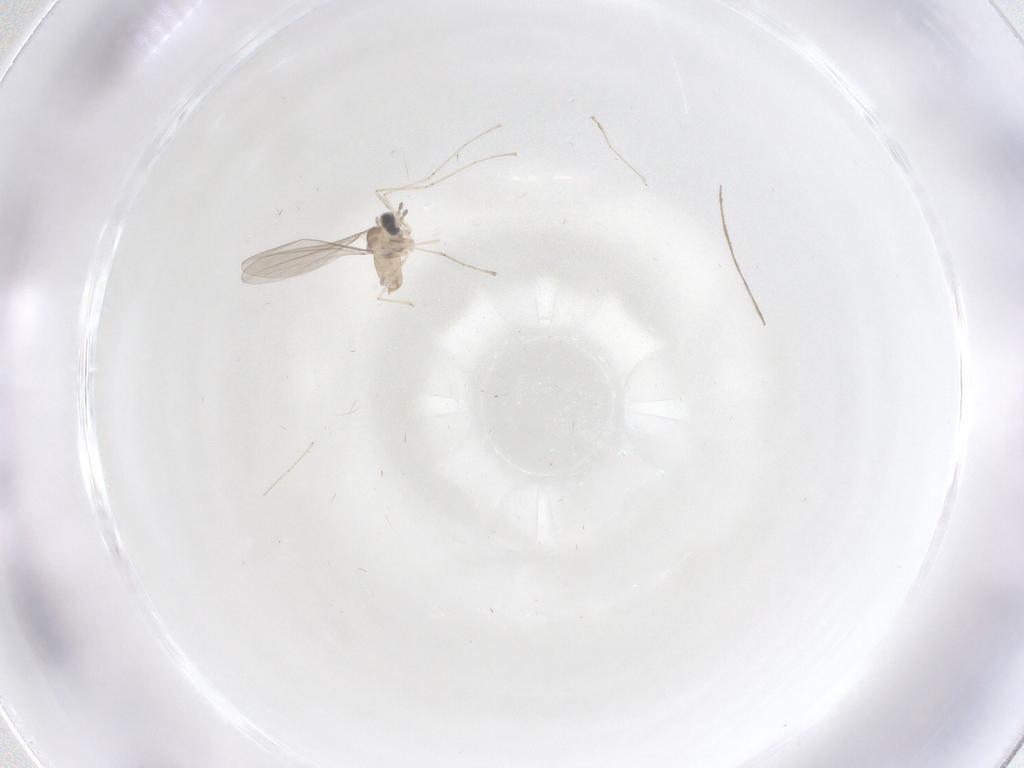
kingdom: Animalia
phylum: Arthropoda
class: Insecta
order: Diptera
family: Cecidomyiidae
